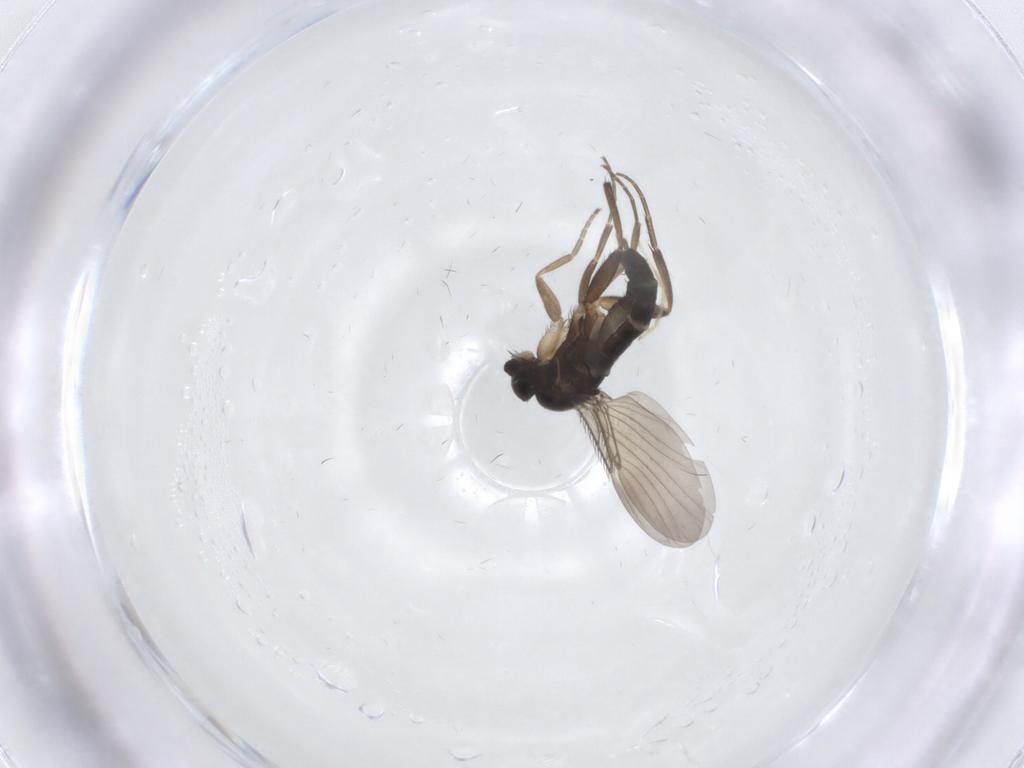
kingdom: Animalia
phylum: Arthropoda
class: Insecta
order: Diptera
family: Phoridae
